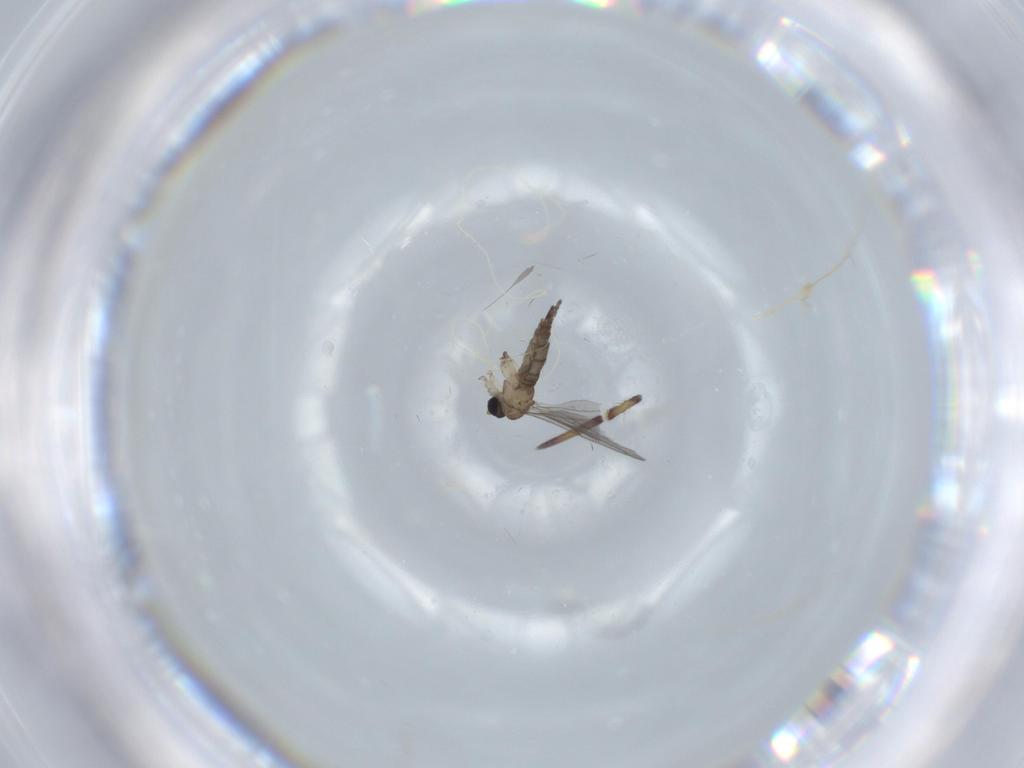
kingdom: Animalia
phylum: Arthropoda
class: Insecta
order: Diptera
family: Sciaridae
